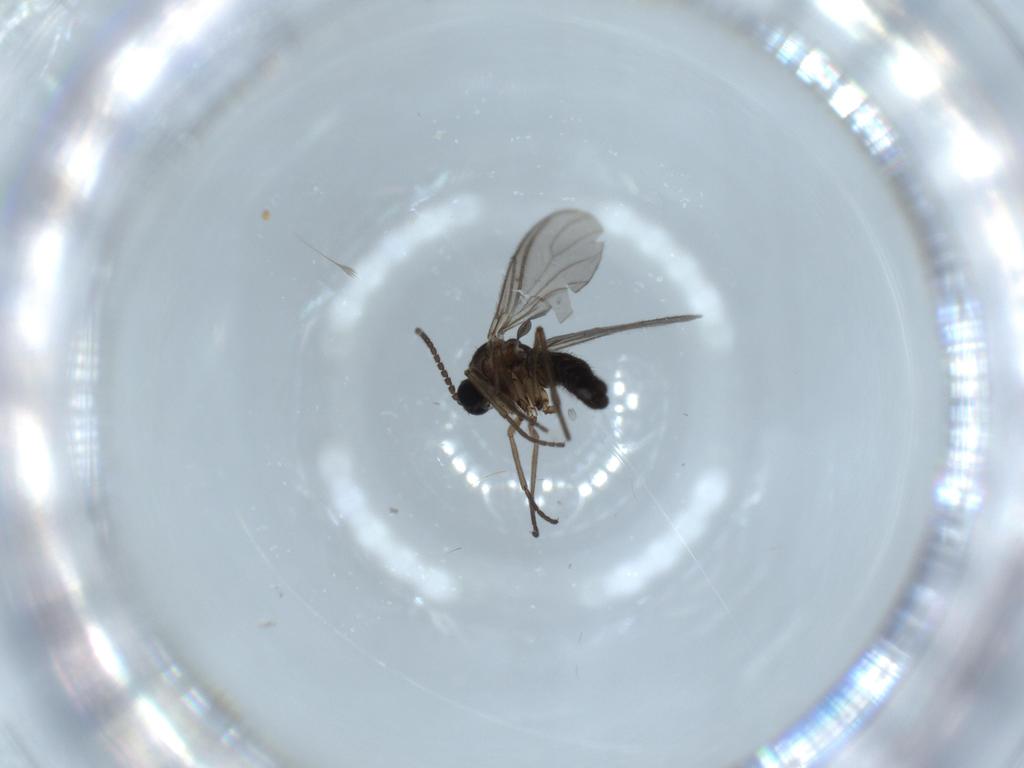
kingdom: Animalia
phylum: Arthropoda
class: Insecta
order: Diptera
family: Sciaridae
